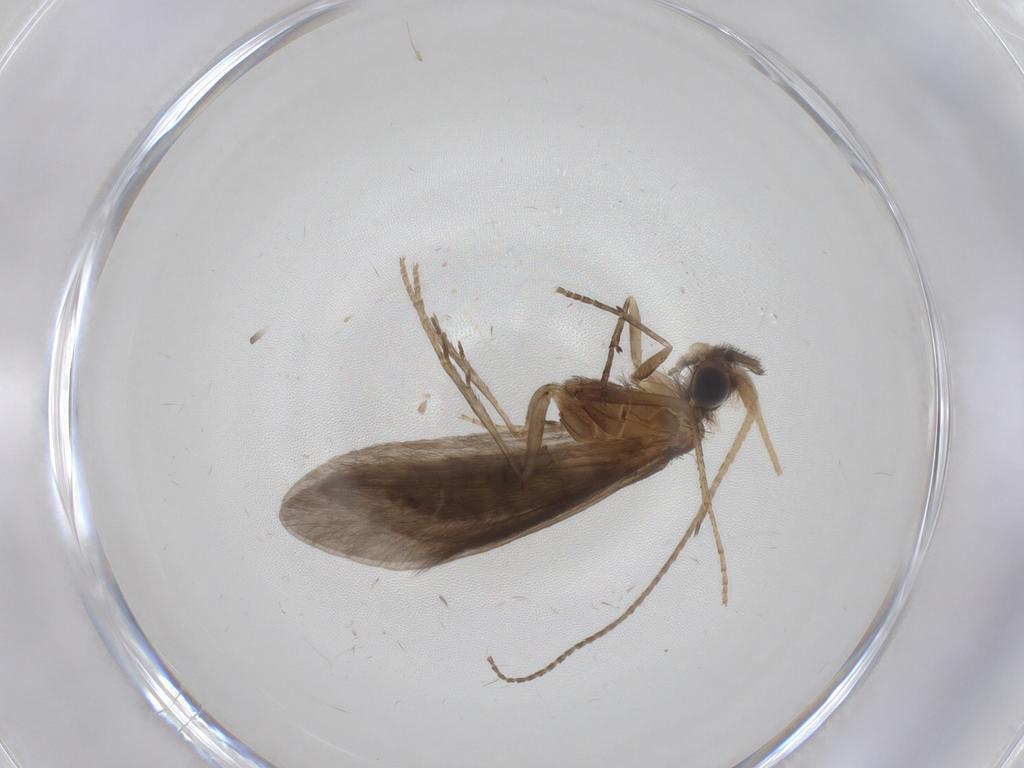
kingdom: Animalia
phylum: Arthropoda
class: Insecta
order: Trichoptera
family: Helicopsychidae
